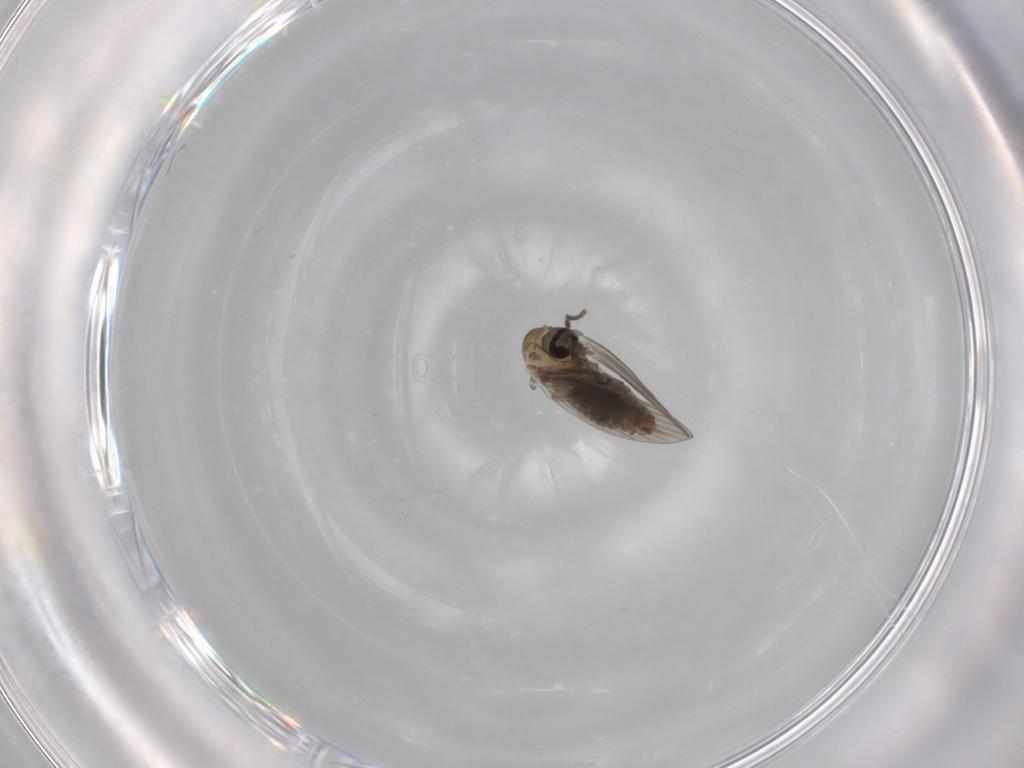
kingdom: Animalia
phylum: Arthropoda
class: Insecta
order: Diptera
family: Psychodidae
